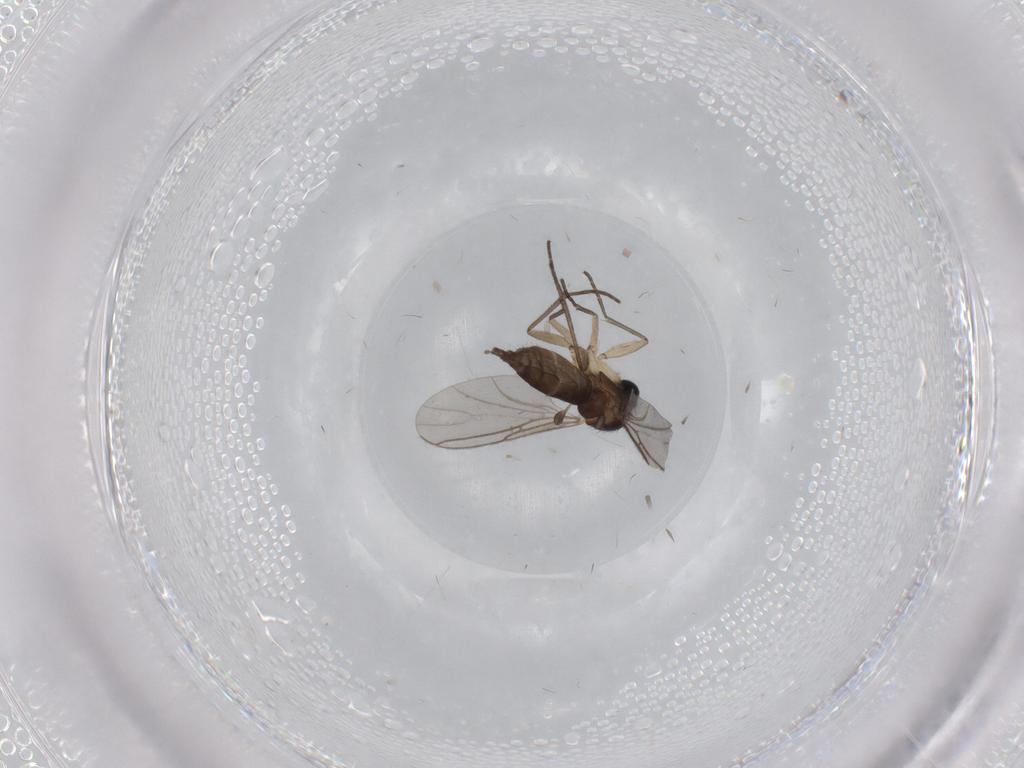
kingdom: Animalia
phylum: Arthropoda
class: Insecta
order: Diptera
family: Sciaridae
